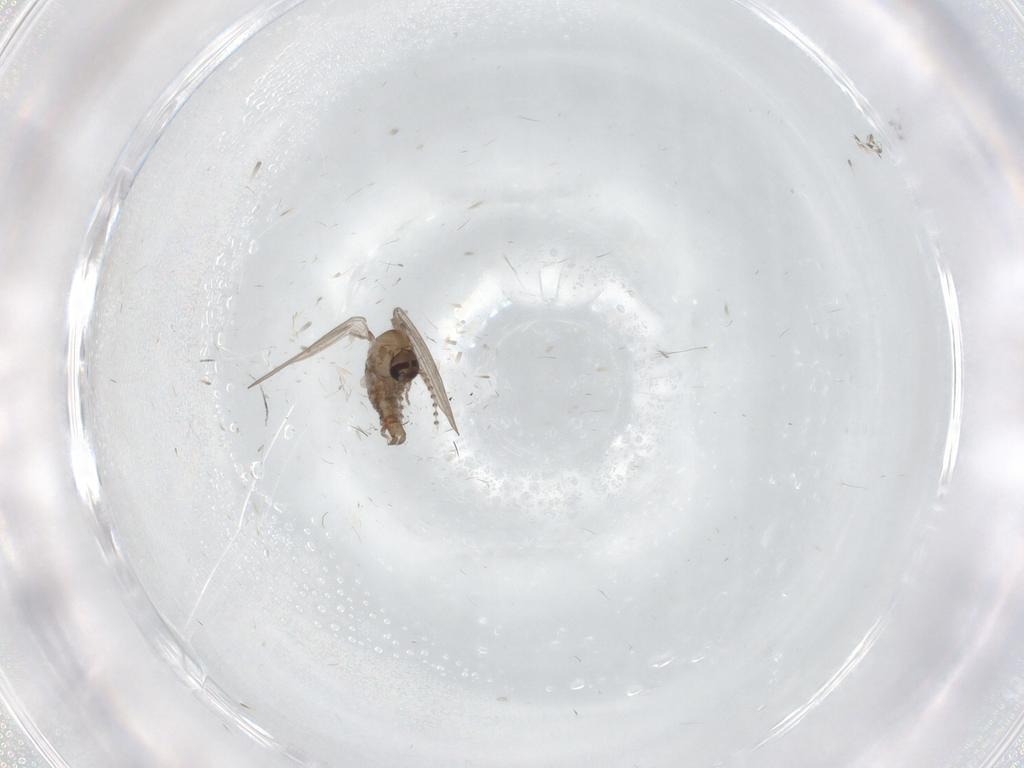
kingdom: Animalia
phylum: Arthropoda
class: Insecta
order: Diptera
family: Psychodidae
